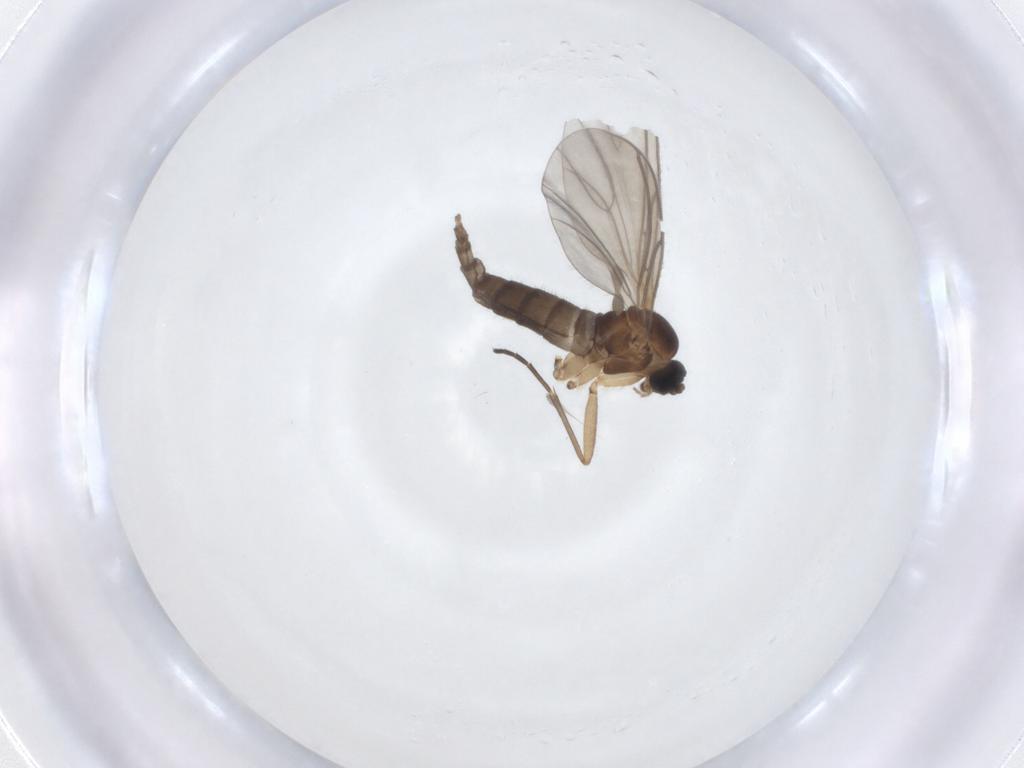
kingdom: Animalia
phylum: Arthropoda
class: Insecta
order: Diptera
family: Sciaridae
